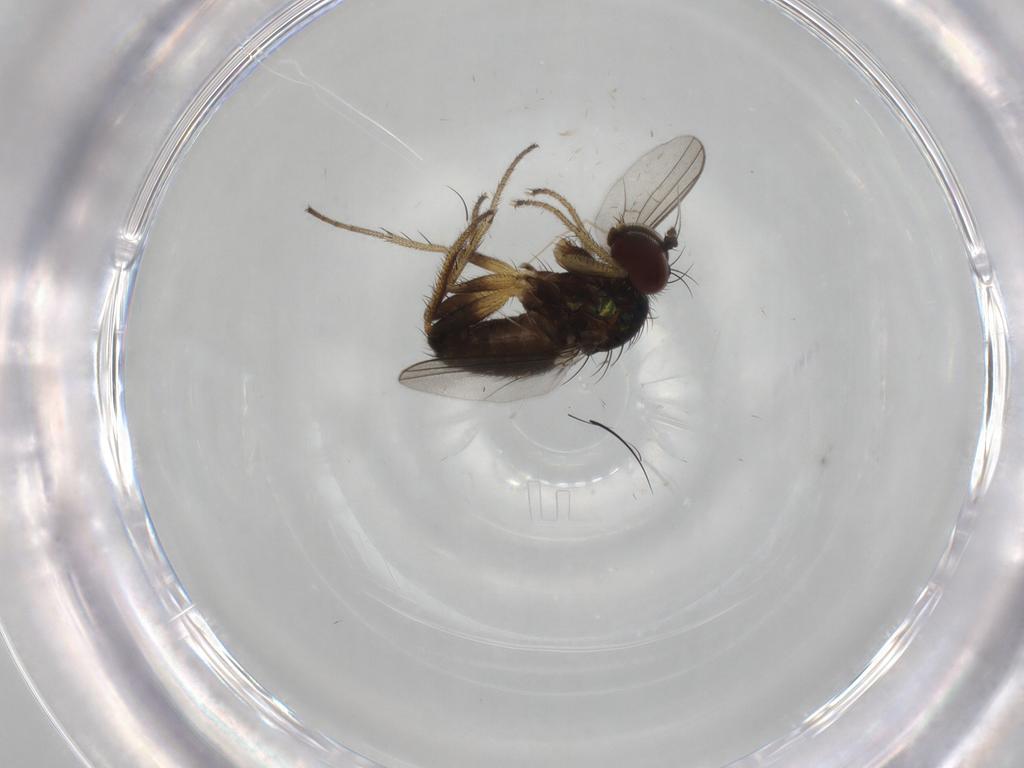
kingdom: Animalia
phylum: Arthropoda
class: Insecta
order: Diptera
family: Dolichopodidae
